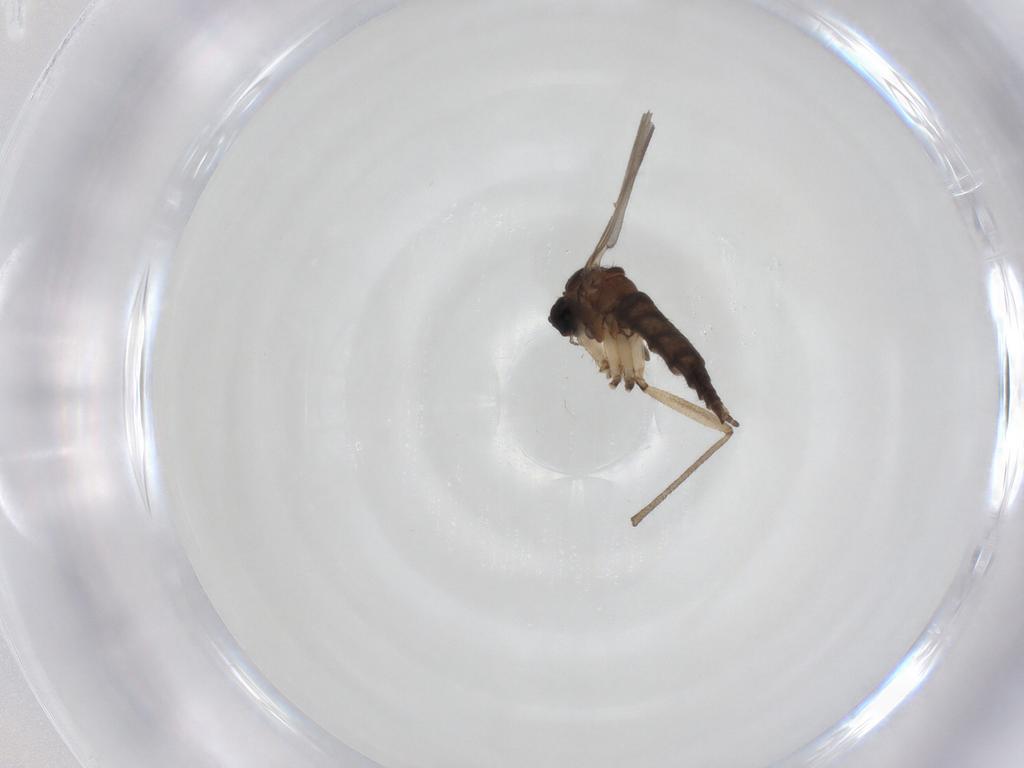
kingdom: Animalia
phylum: Arthropoda
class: Insecta
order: Diptera
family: Sciaridae
